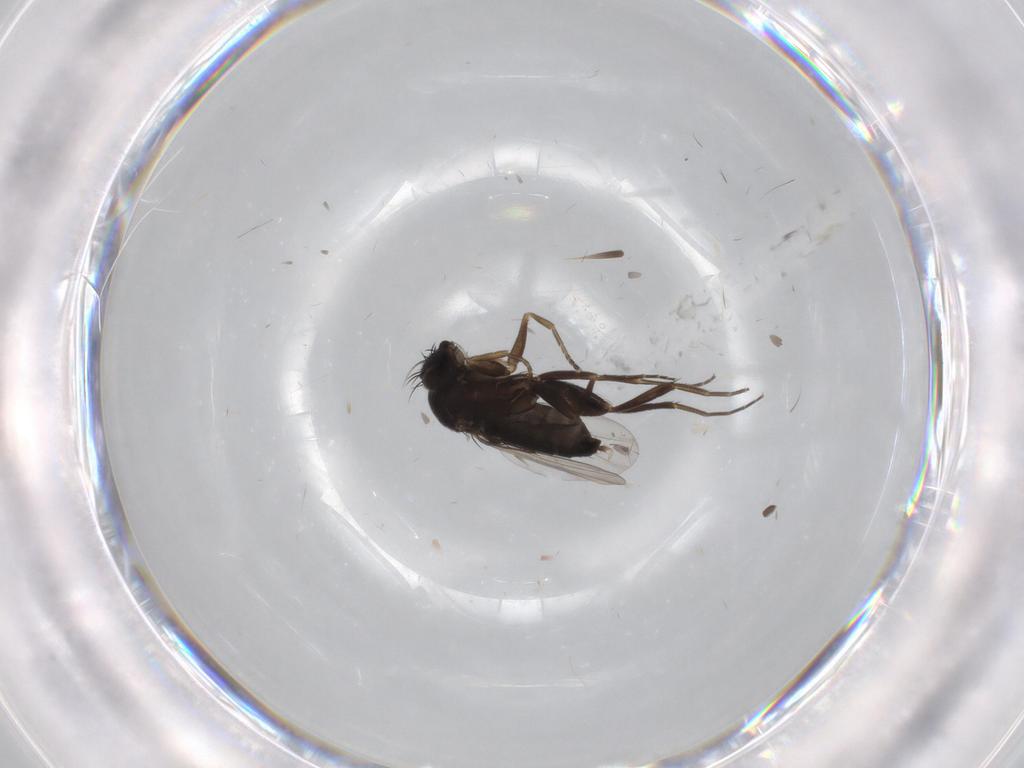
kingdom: Animalia
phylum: Arthropoda
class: Insecta
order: Diptera
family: Phoridae
